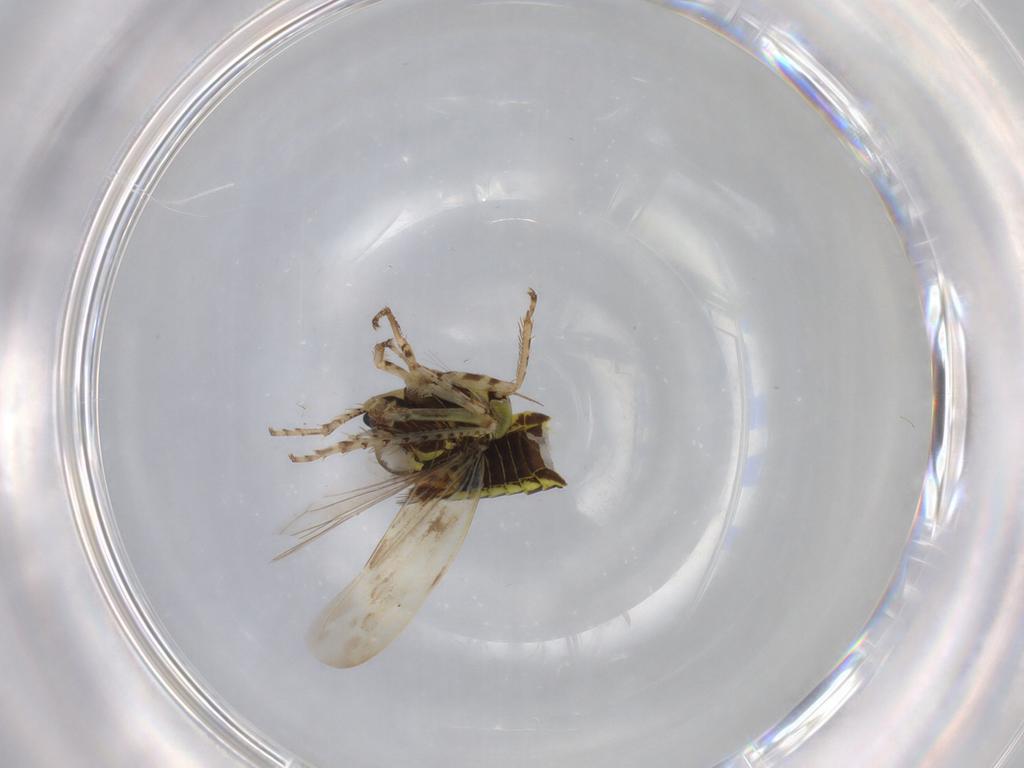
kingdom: Animalia
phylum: Arthropoda
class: Insecta
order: Hemiptera
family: Cicadellidae
